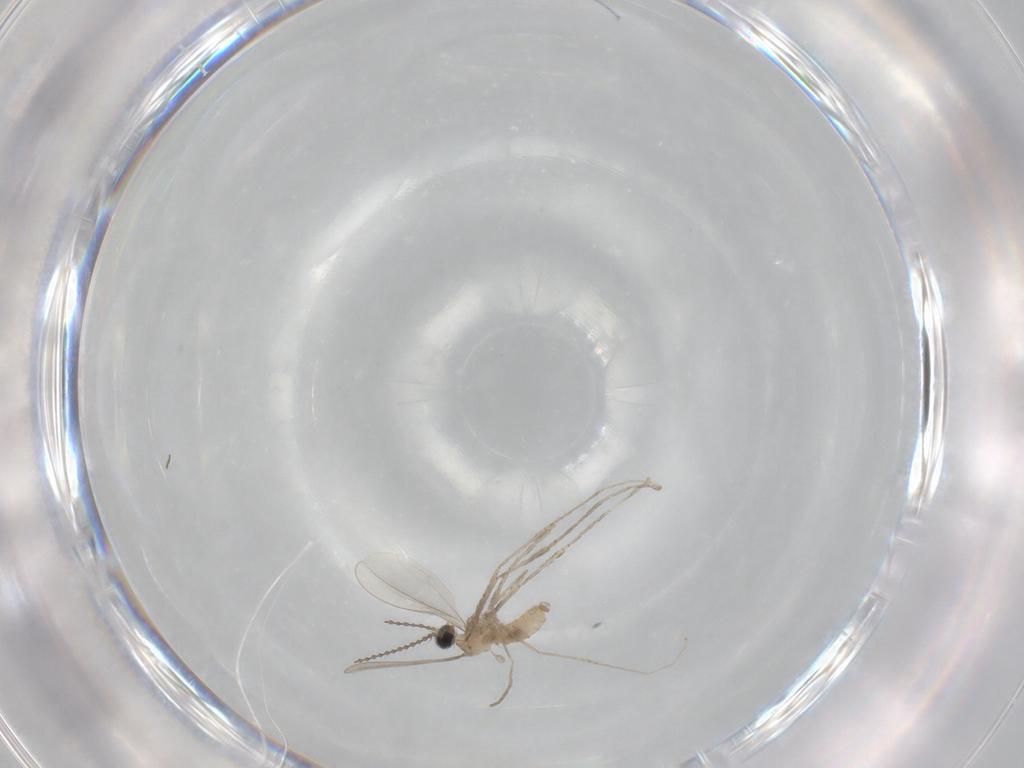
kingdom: Animalia
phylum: Arthropoda
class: Insecta
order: Diptera
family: Cecidomyiidae
